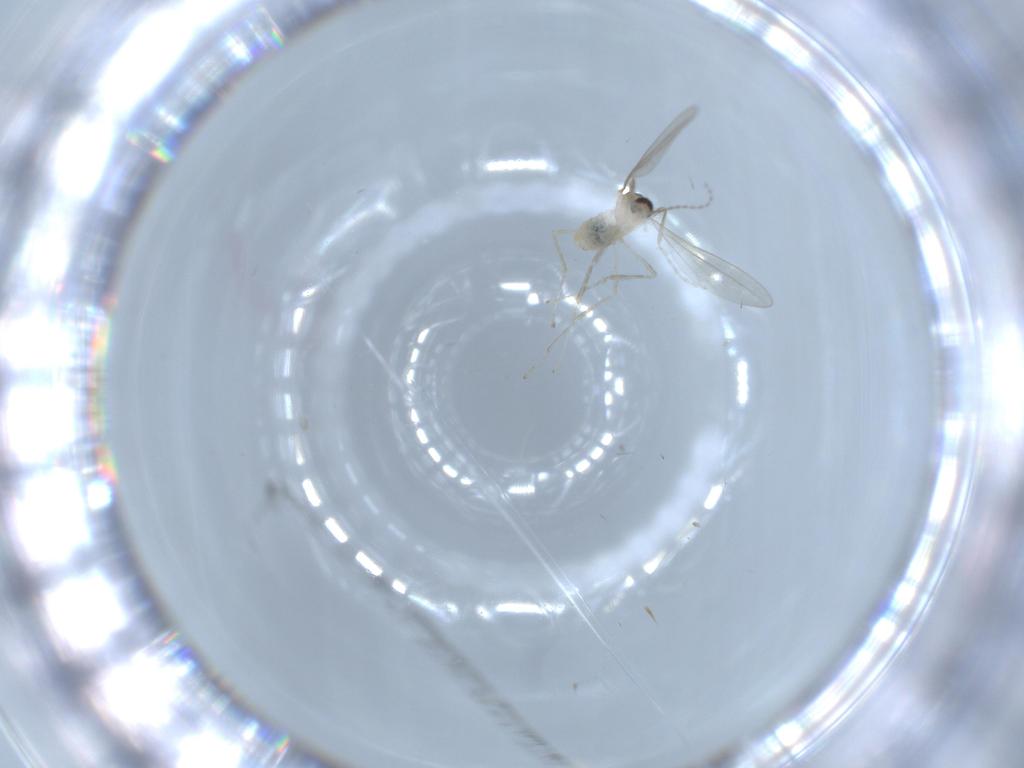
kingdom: Animalia
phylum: Arthropoda
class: Insecta
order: Diptera
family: Cecidomyiidae
